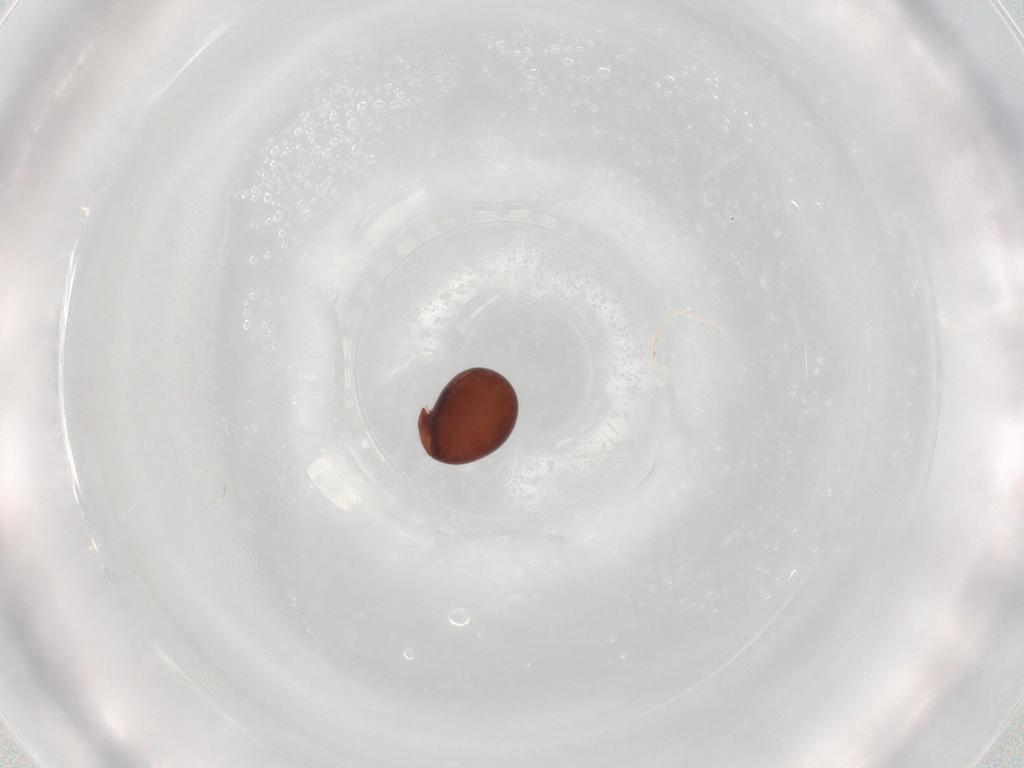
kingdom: Animalia
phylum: Arthropoda
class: Arachnida
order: Sarcoptiformes
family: Phthiracaridae
